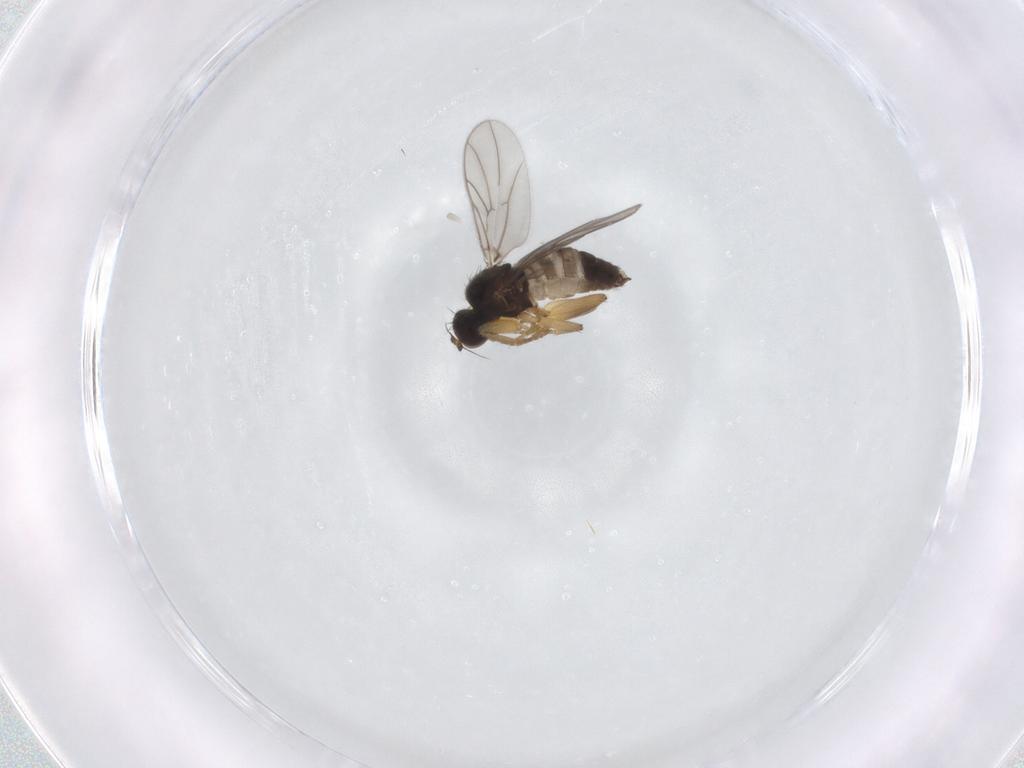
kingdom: Animalia
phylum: Arthropoda
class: Insecta
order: Diptera
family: Hybotidae
